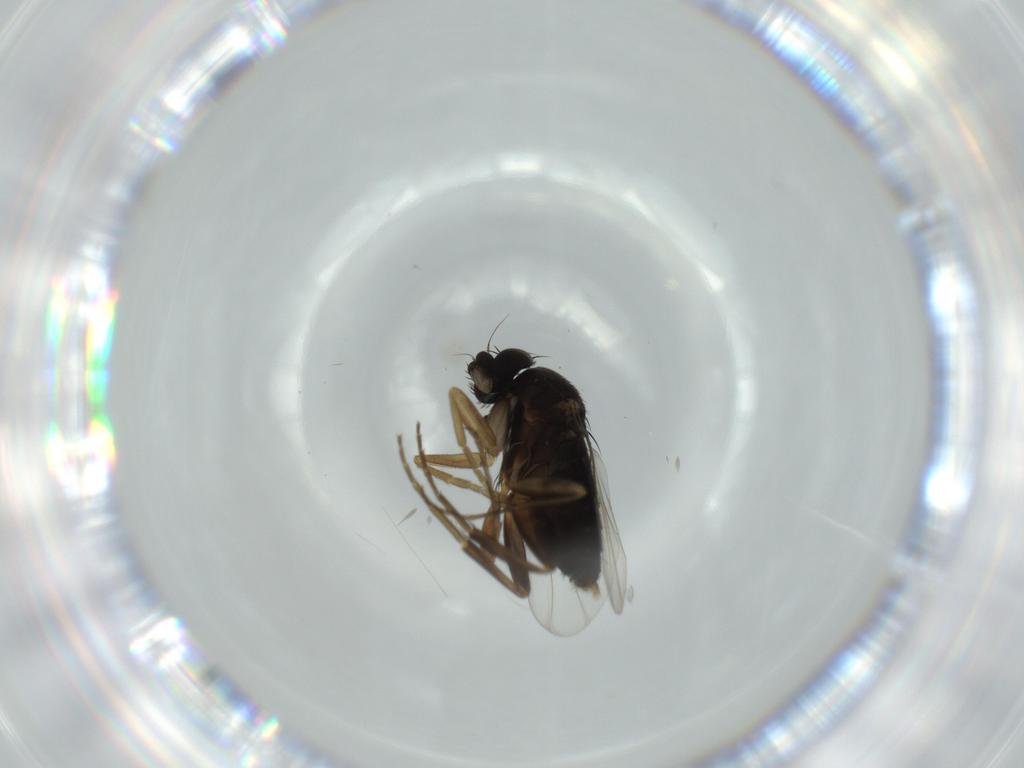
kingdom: Animalia
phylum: Arthropoda
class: Insecta
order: Diptera
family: Phoridae
